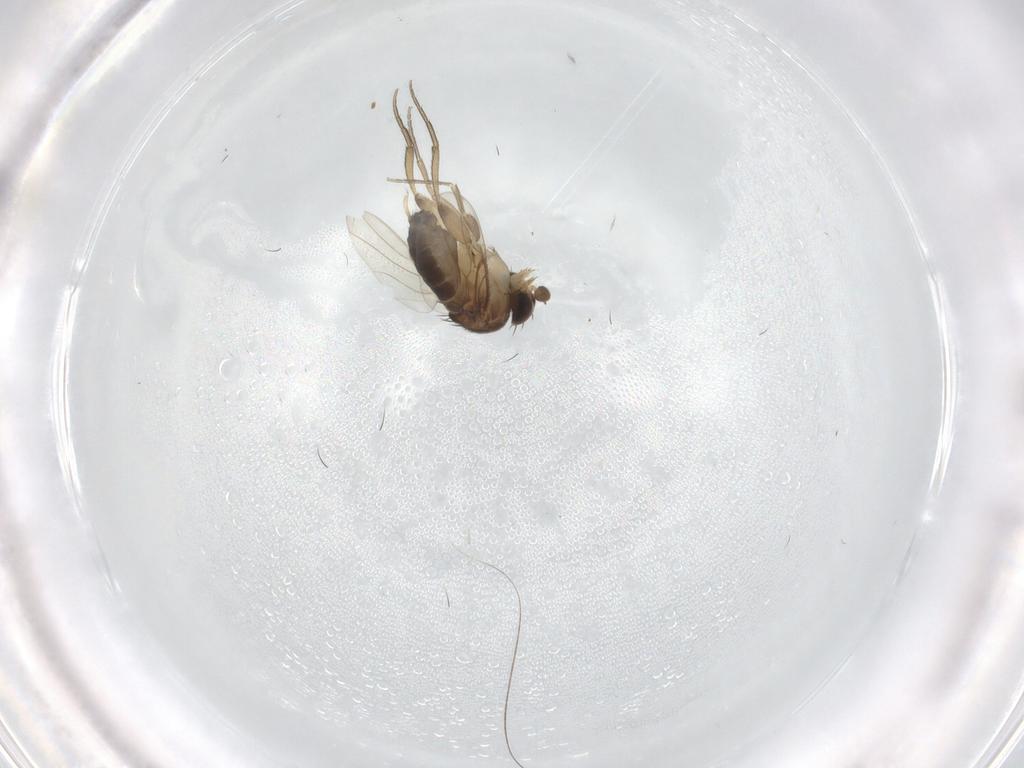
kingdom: Animalia
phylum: Arthropoda
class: Insecta
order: Diptera
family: Phoridae
